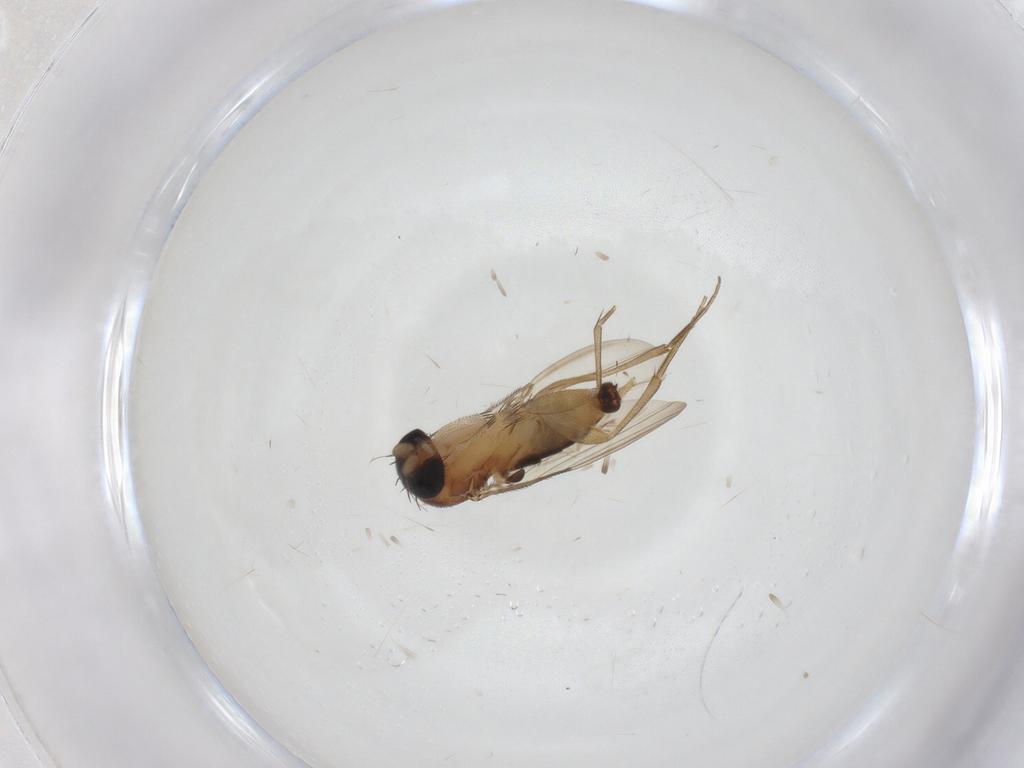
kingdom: Animalia
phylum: Arthropoda
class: Insecta
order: Diptera
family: Phoridae
